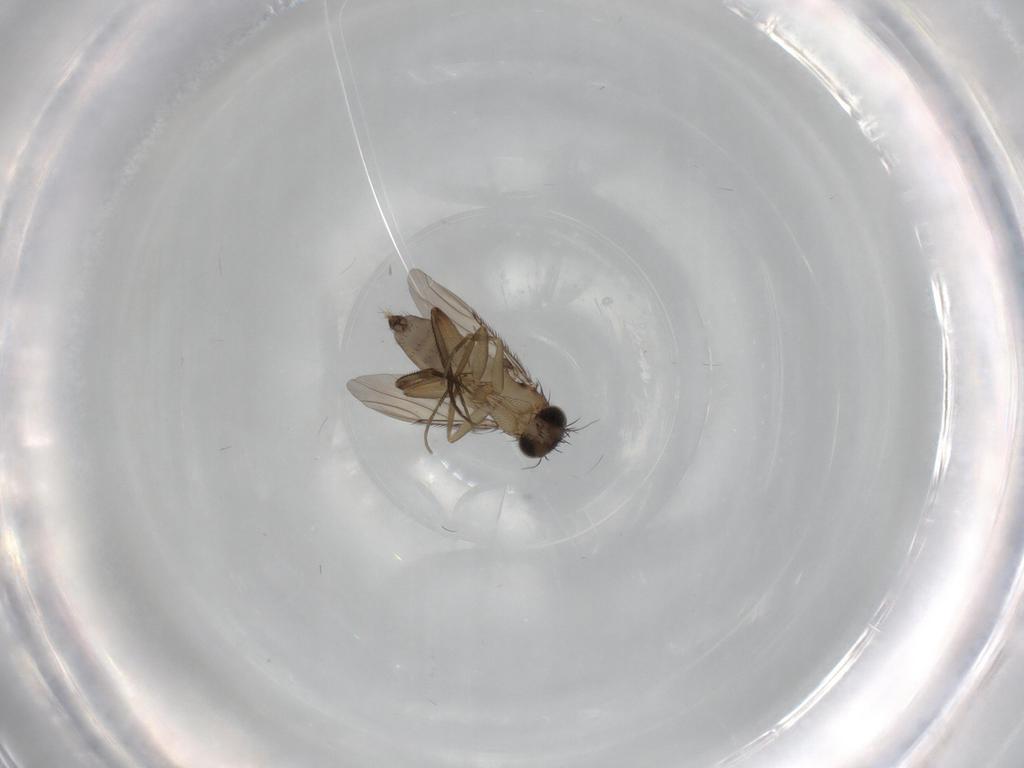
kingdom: Animalia
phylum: Arthropoda
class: Insecta
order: Diptera
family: Phoridae
